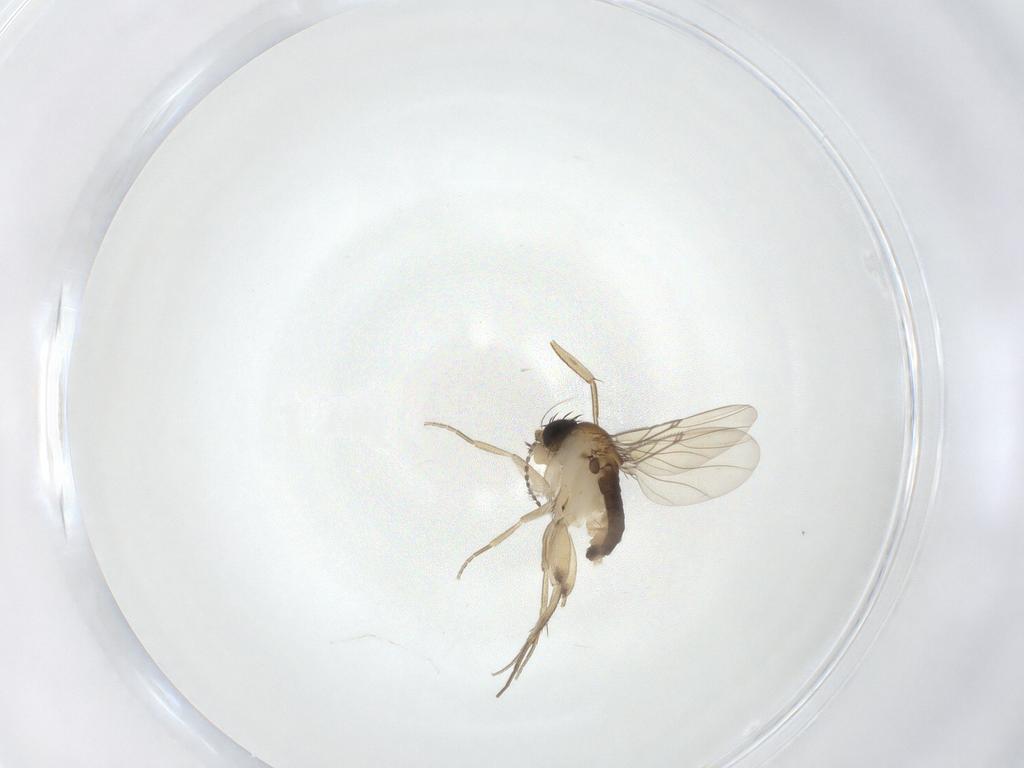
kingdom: Animalia
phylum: Arthropoda
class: Insecta
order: Diptera
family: Phoridae
